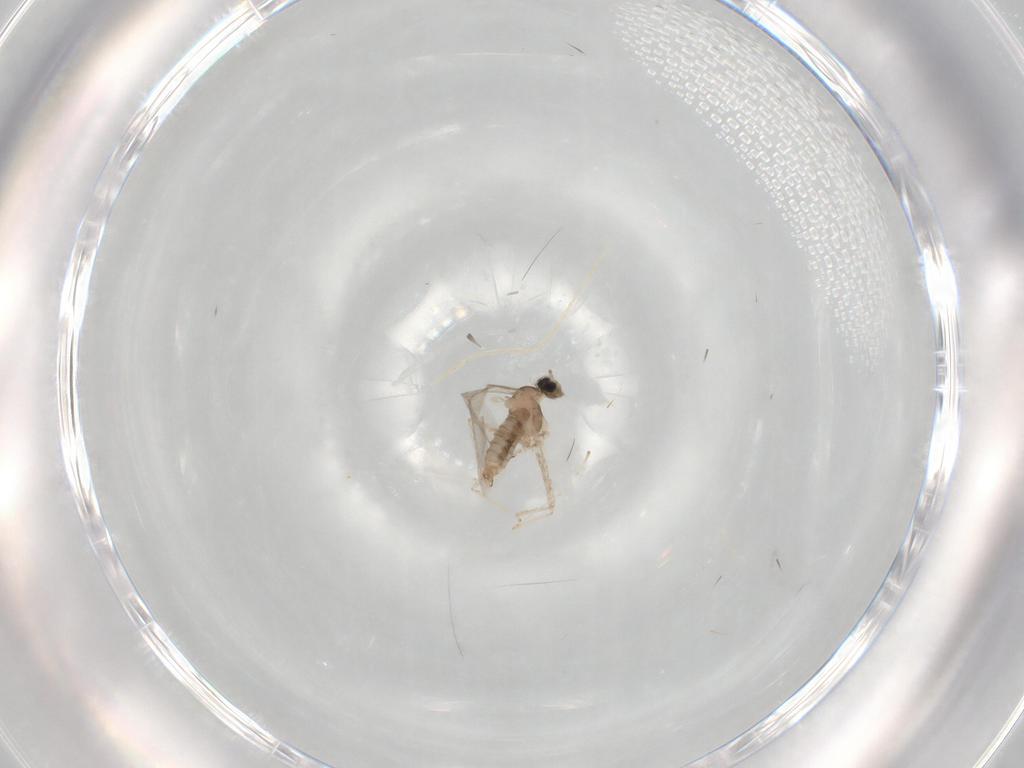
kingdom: Animalia
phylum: Arthropoda
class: Insecta
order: Diptera
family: Cecidomyiidae
